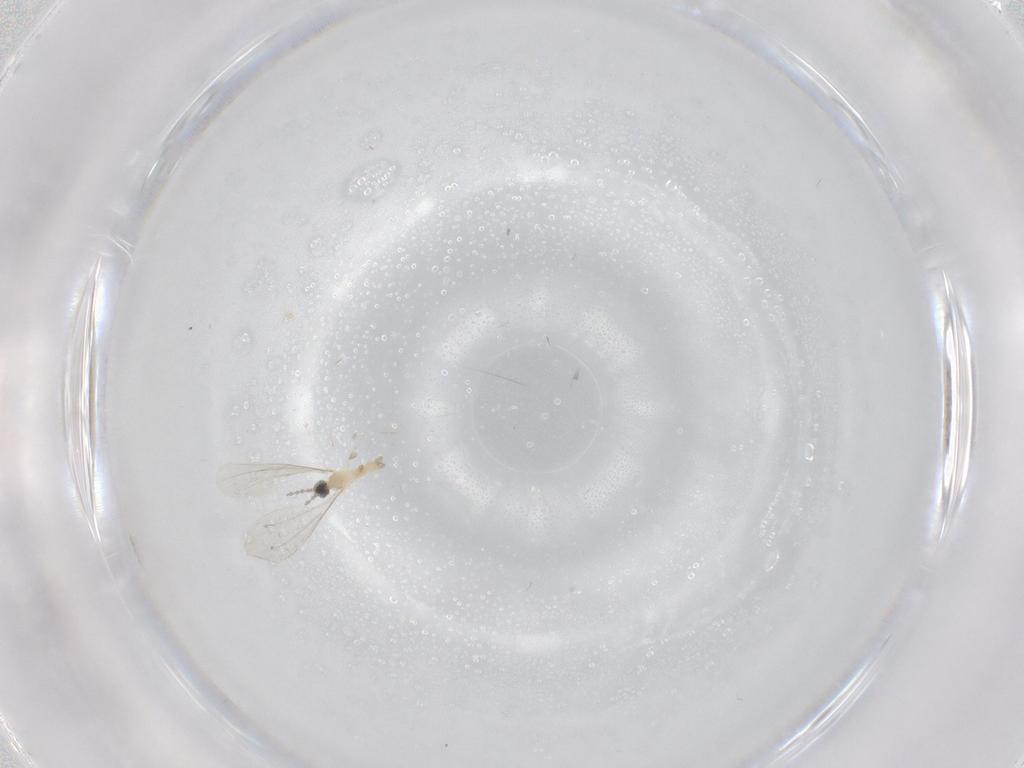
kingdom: Animalia
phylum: Arthropoda
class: Insecta
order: Diptera
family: Cecidomyiidae
